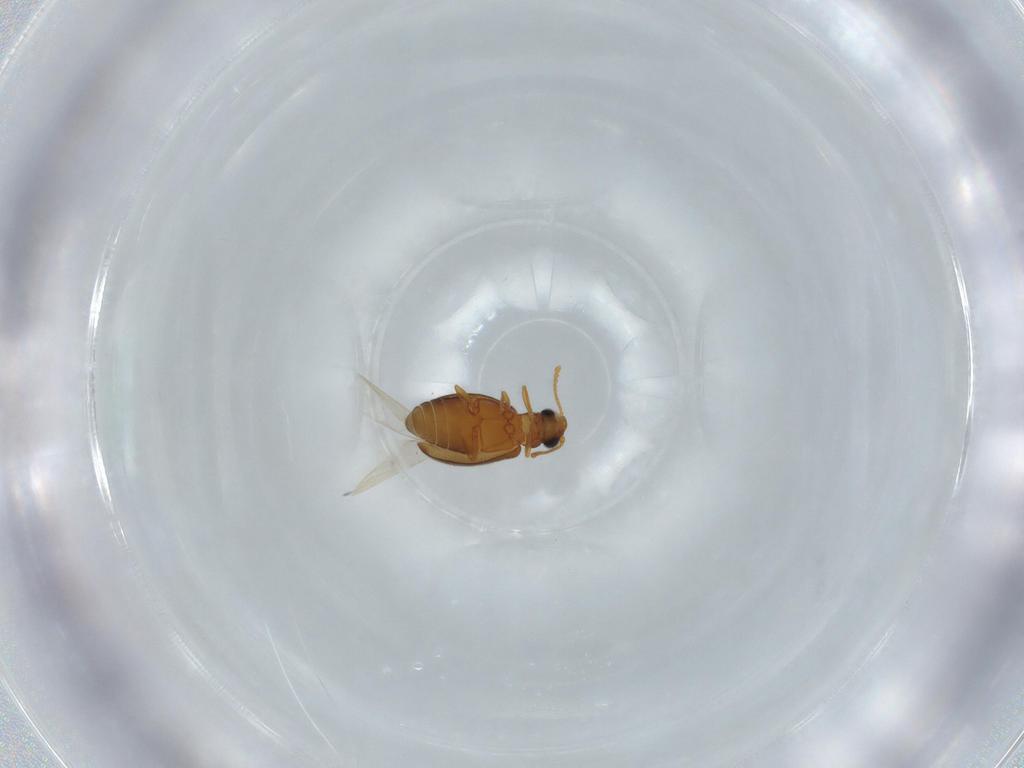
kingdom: Animalia
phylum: Arthropoda
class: Insecta
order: Coleoptera
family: Aderidae
